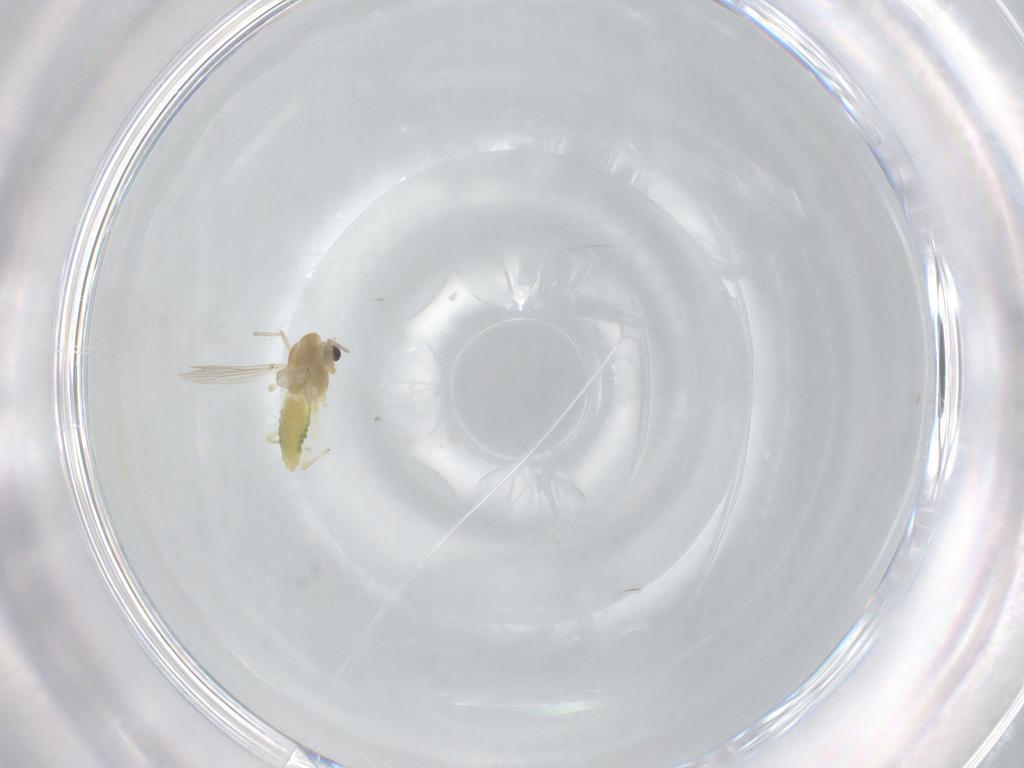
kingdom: Animalia
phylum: Arthropoda
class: Insecta
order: Diptera
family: Chironomidae
